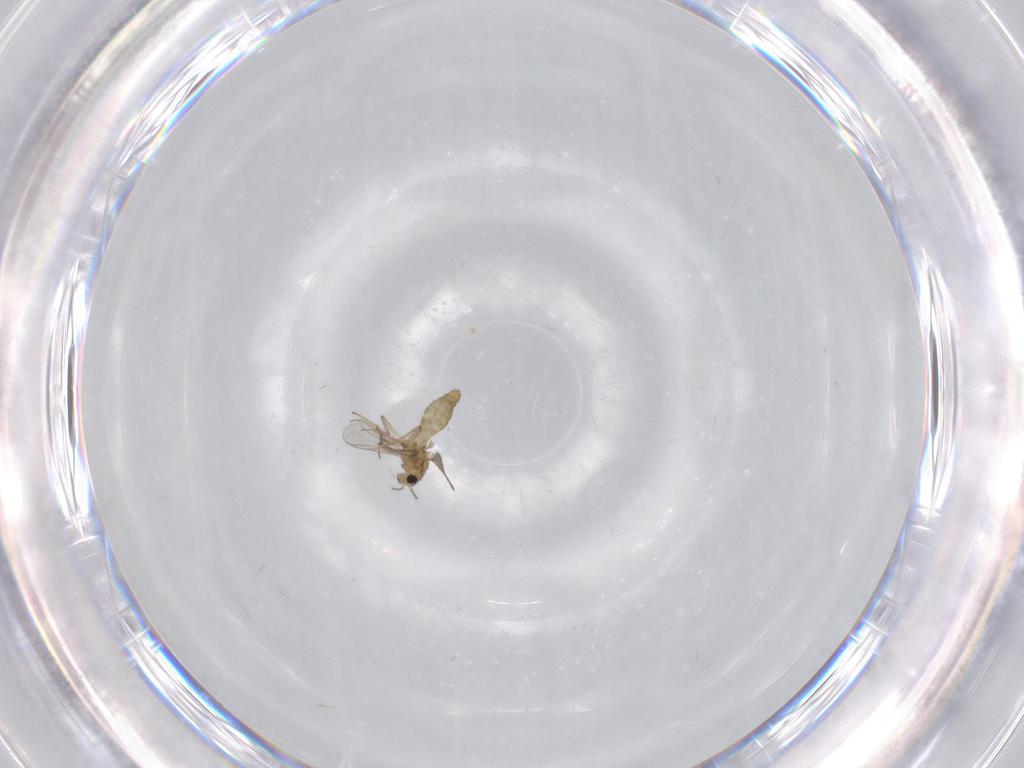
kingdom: Animalia
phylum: Arthropoda
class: Insecta
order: Diptera
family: Chironomidae
